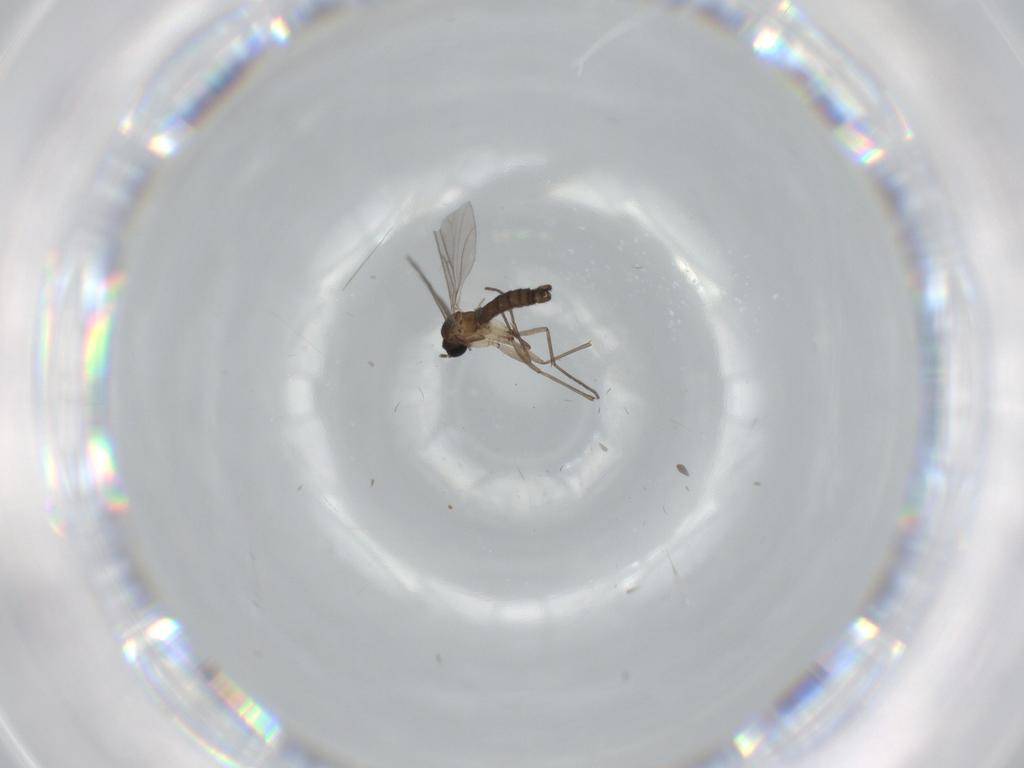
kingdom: Animalia
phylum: Arthropoda
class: Insecta
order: Diptera
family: Sciaridae
